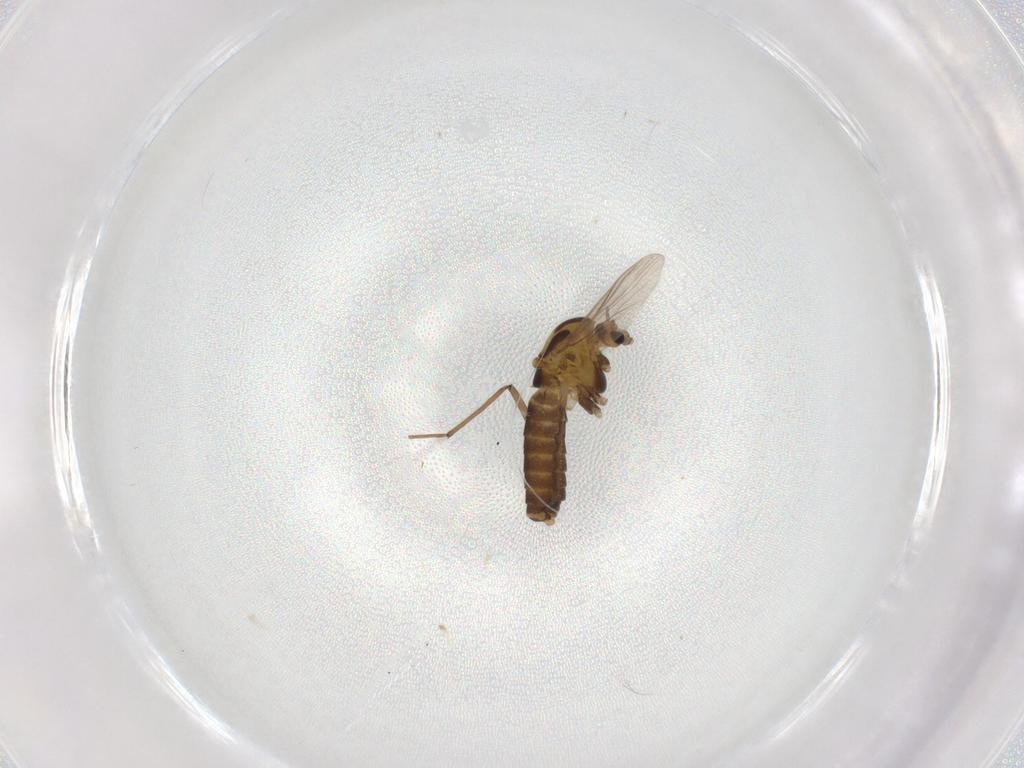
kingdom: Animalia
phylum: Arthropoda
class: Insecta
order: Diptera
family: Chironomidae
